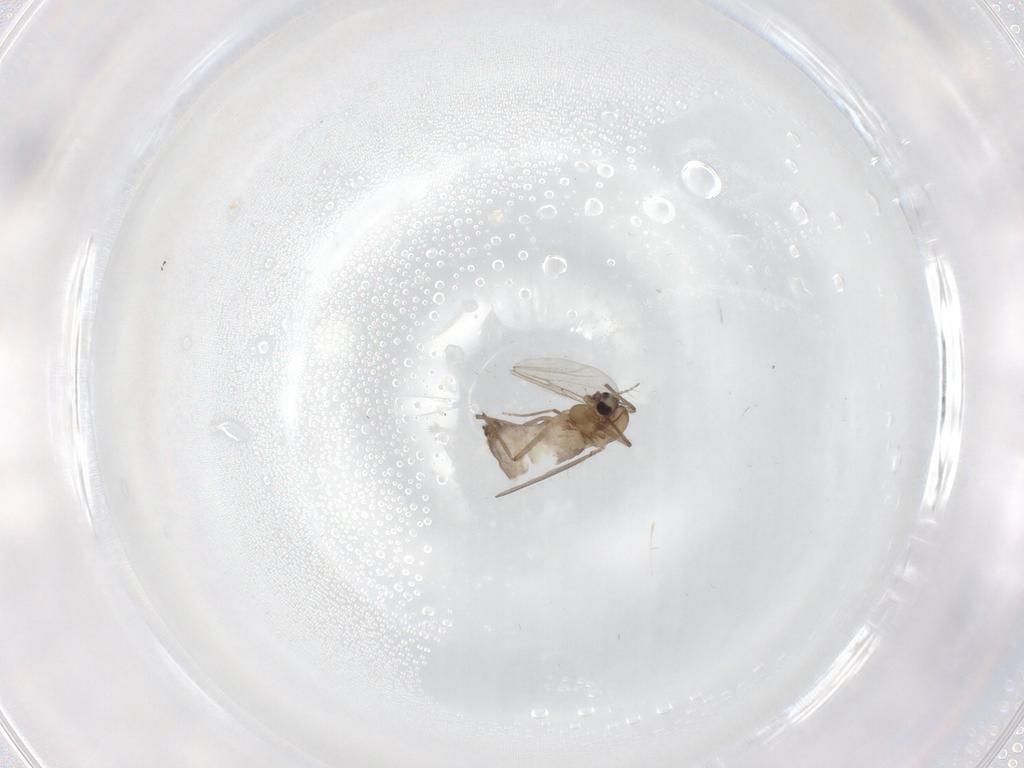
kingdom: Animalia
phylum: Arthropoda
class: Insecta
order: Diptera
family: Chironomidae
